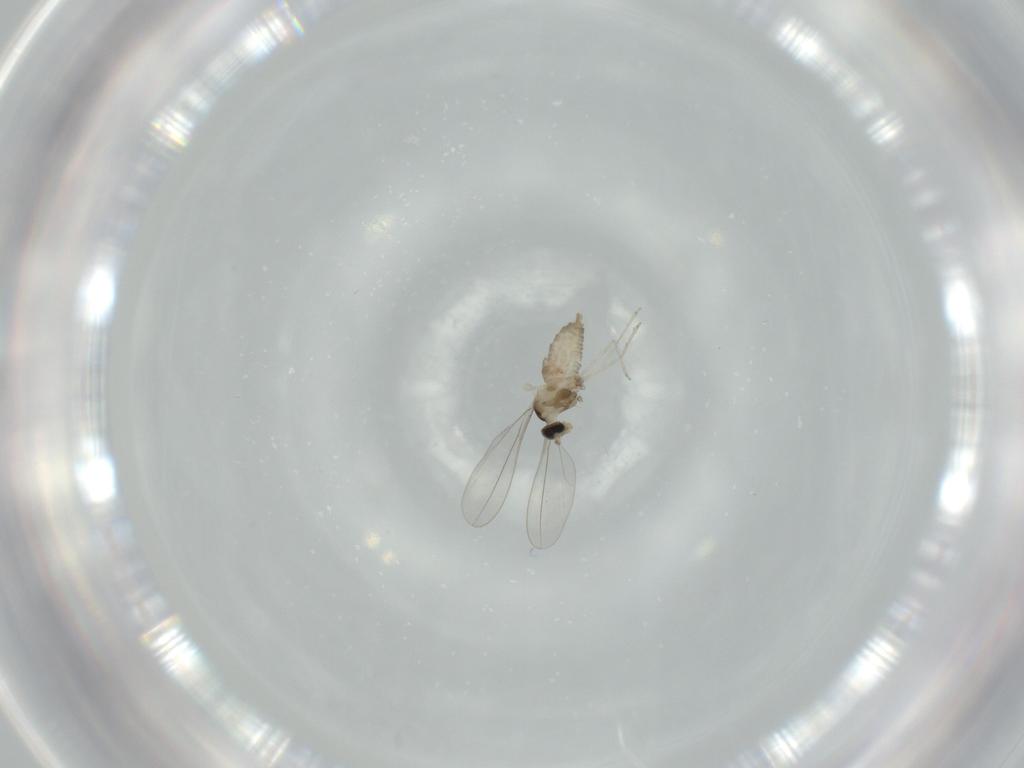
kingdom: Animalia
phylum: Arthropoda
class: Insecta
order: Diptera
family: Cecidomyiidae
